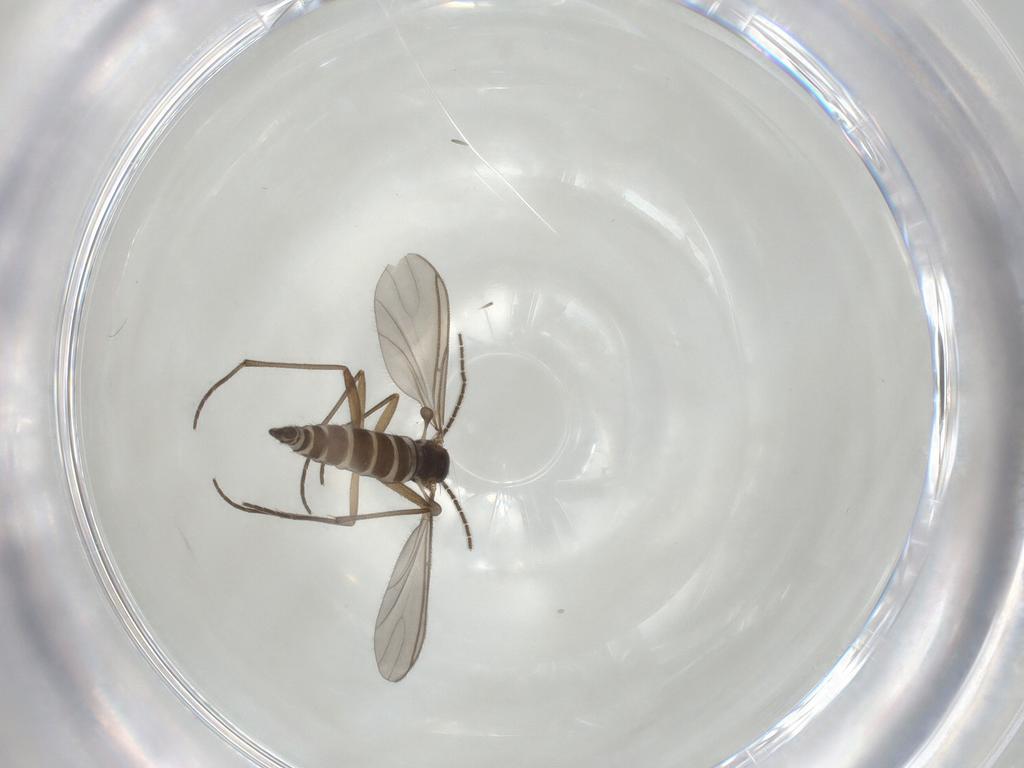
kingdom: Animalia
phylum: Arthropoda
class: Insecta
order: Diptera
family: Sciaridae
